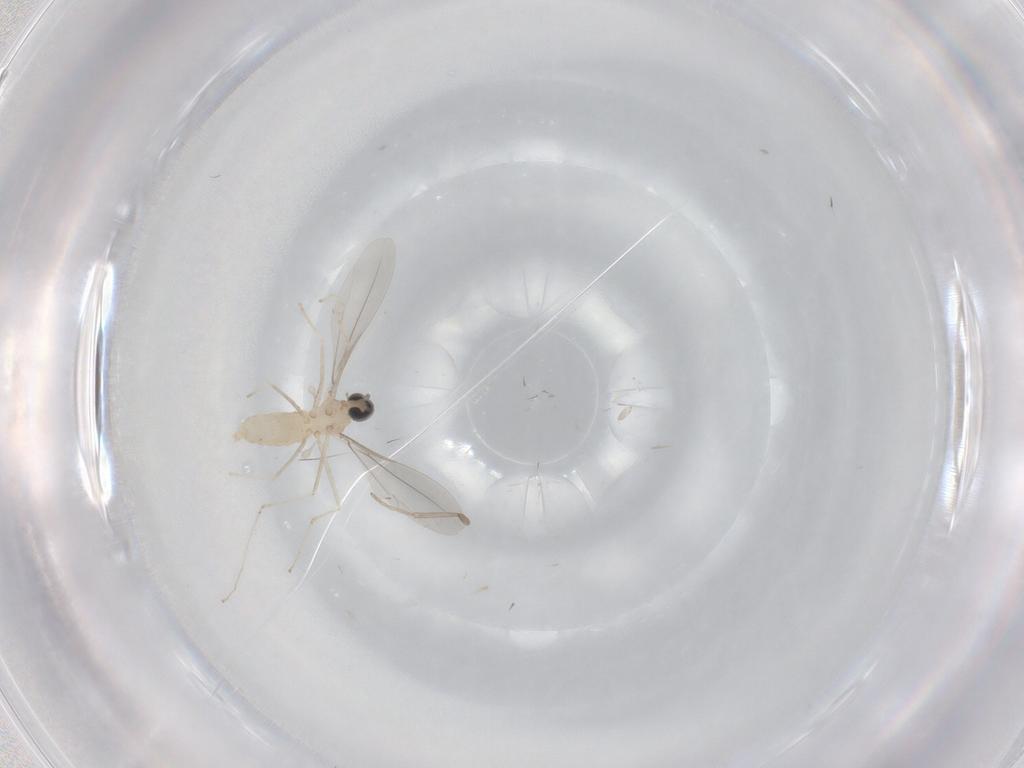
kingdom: Animalia
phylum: Arthropoda
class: Insecta
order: Diptera
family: Cecidomyiidae
